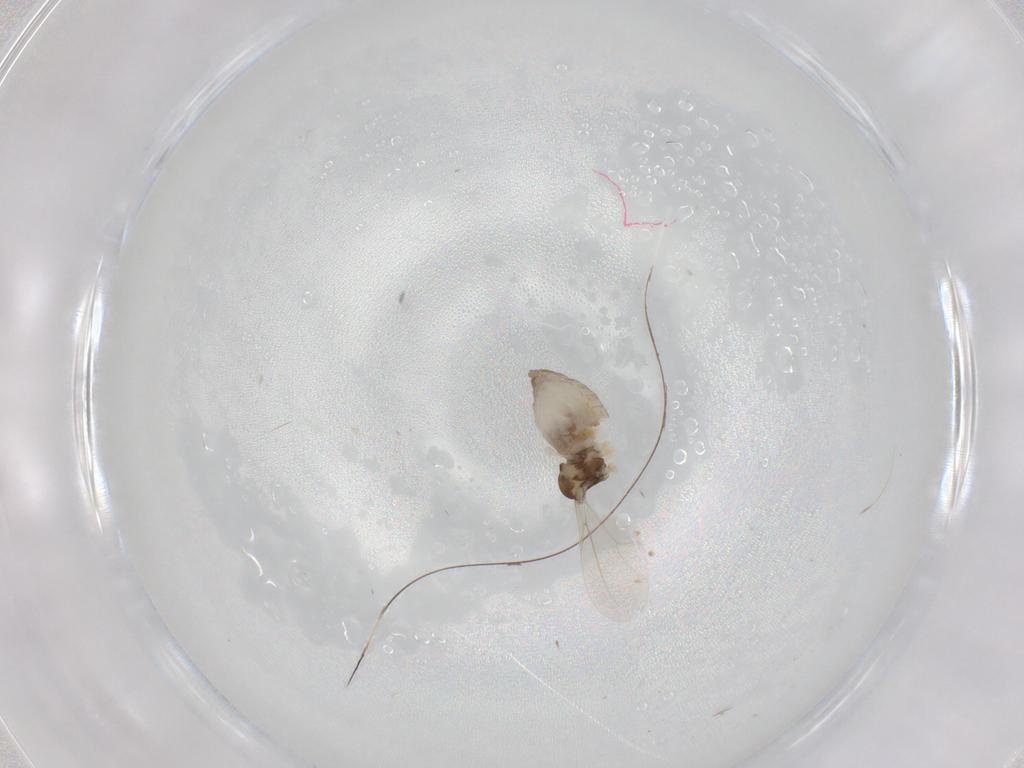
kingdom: Animalia
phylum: Arthropoda
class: Insecta
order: Diptera
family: Cecidomyiidae
